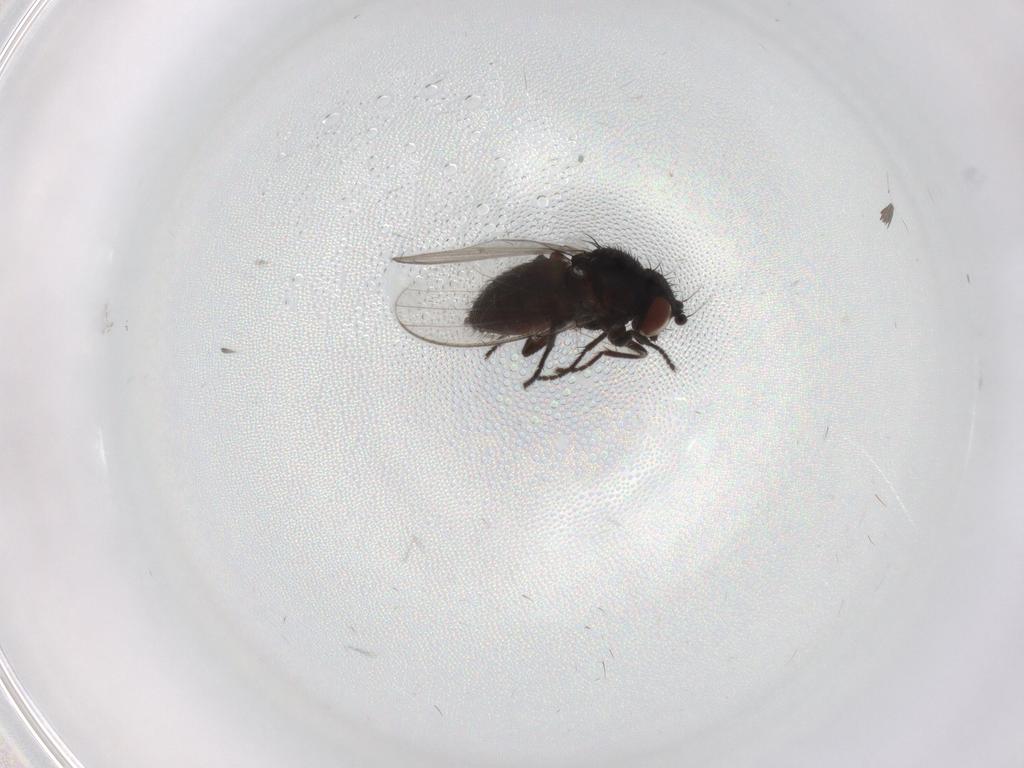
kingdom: Animalia
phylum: Arthropoda
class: Insecta
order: Diptera
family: Milichiidae
